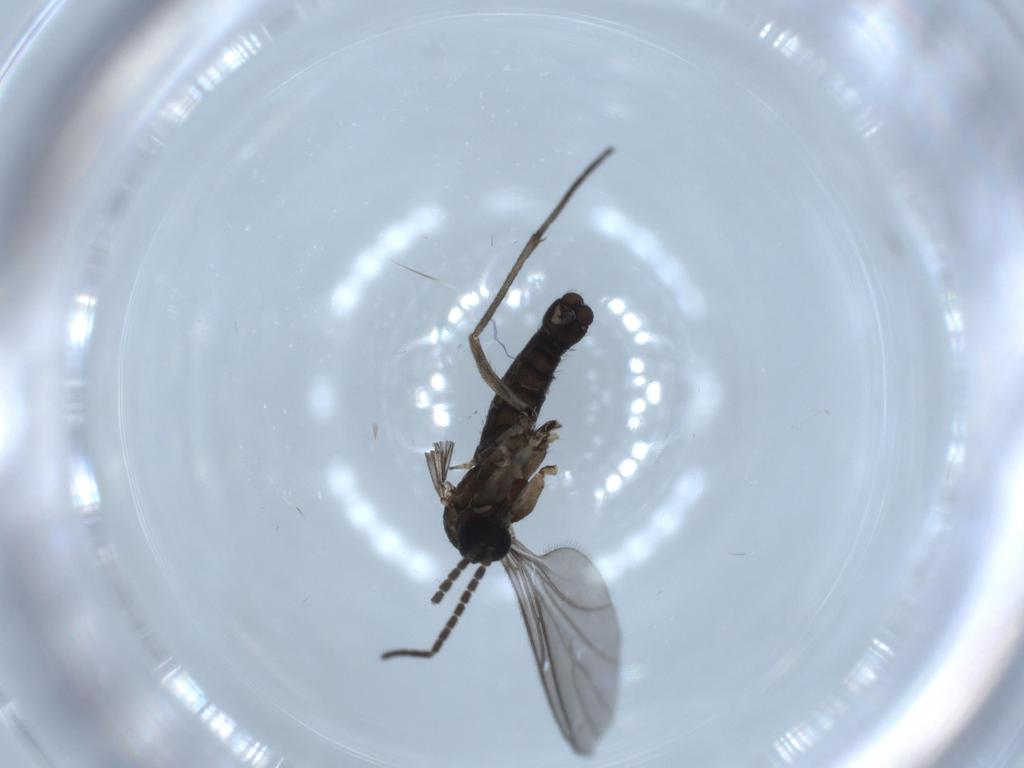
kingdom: Animalia
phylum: Arthropoda
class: Insecta
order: Diptera
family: Sciaridae
